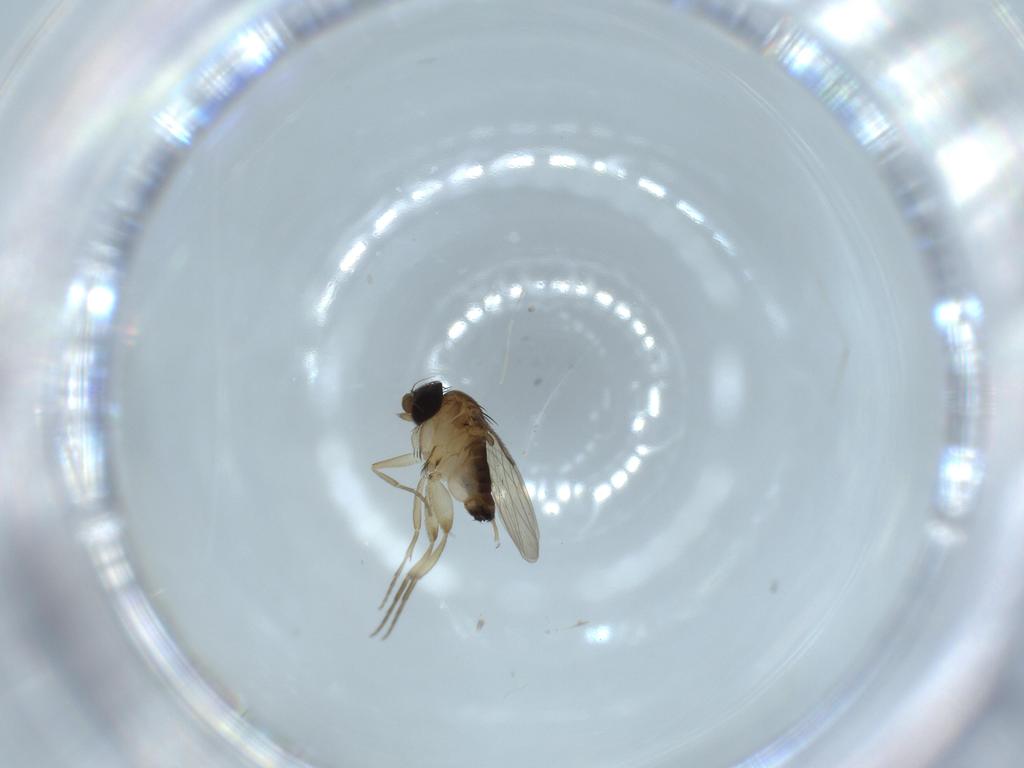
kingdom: Animalia
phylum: Arthropoda
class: Insecta
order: Diptera
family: Phoridae
